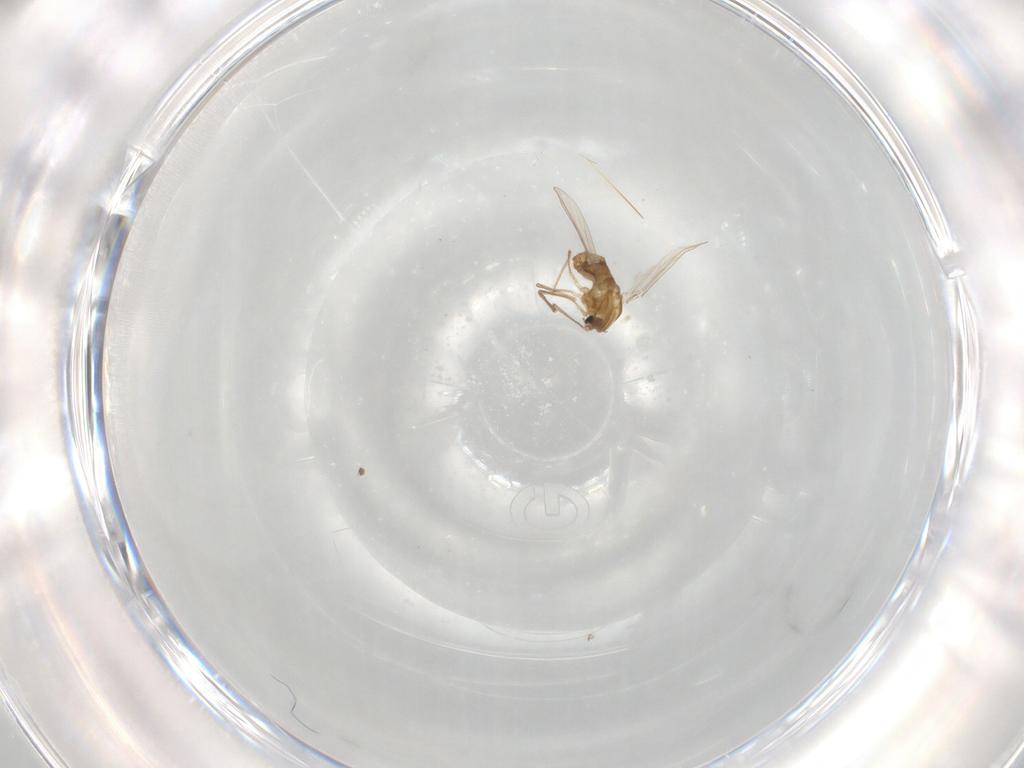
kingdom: Animalia
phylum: Arthropoda
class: Insecta
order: Diptera
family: Chironomidae
